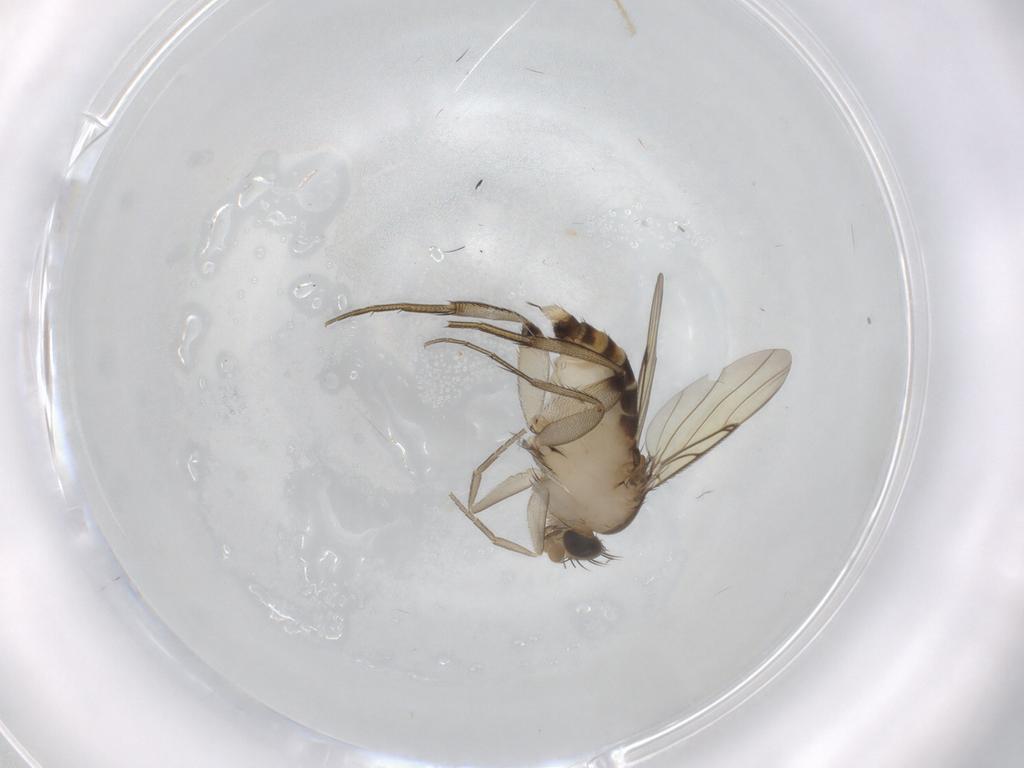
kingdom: Animalia
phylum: Arthropoda
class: Insecta
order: Diptera
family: Phoridae
